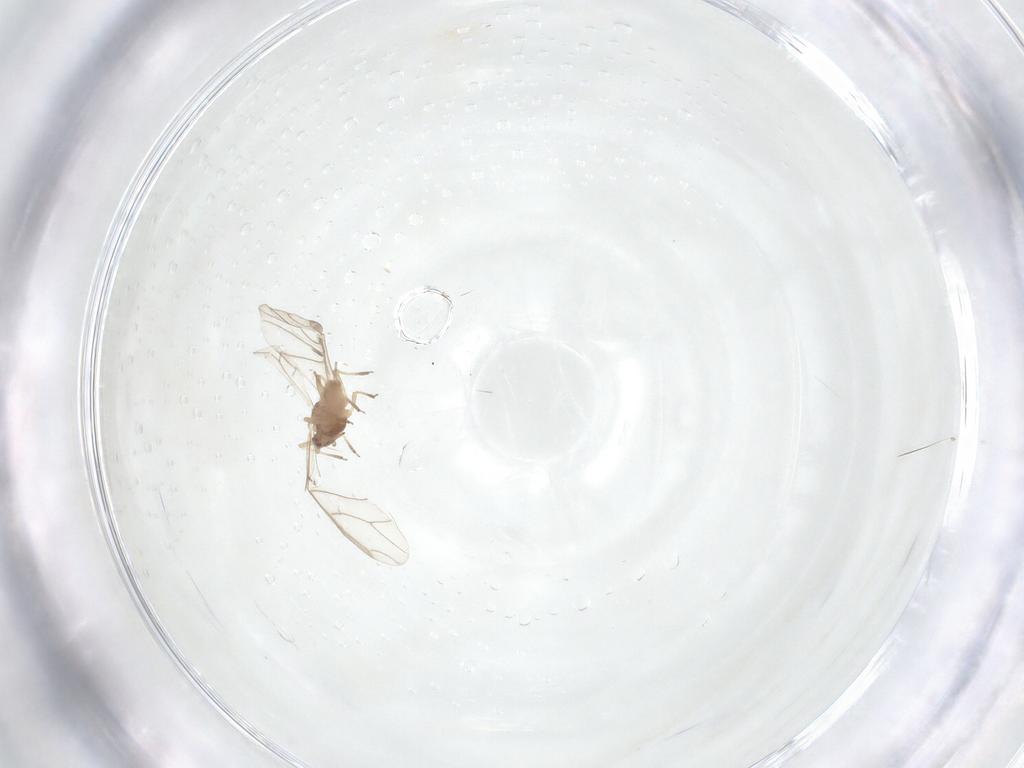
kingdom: Animalia
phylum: Arthropoda
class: Insecta
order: Hemiptera
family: Aphididae
